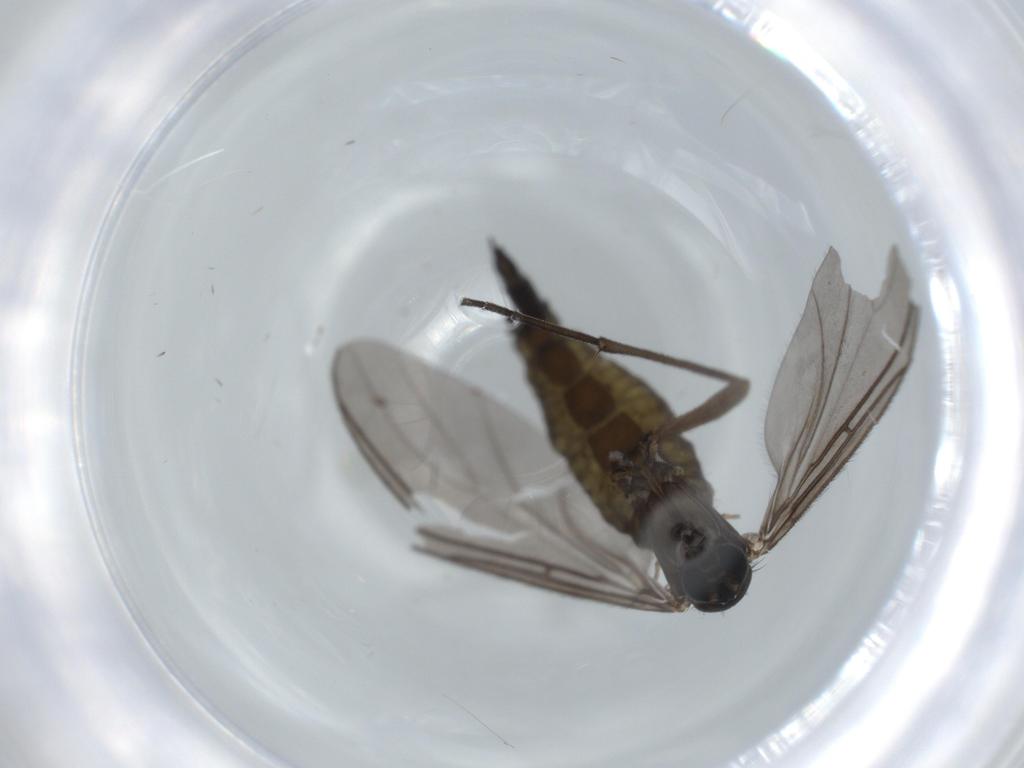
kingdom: Animalia
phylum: Arthropoda
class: Insecta
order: Diptera
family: Sciaridae
